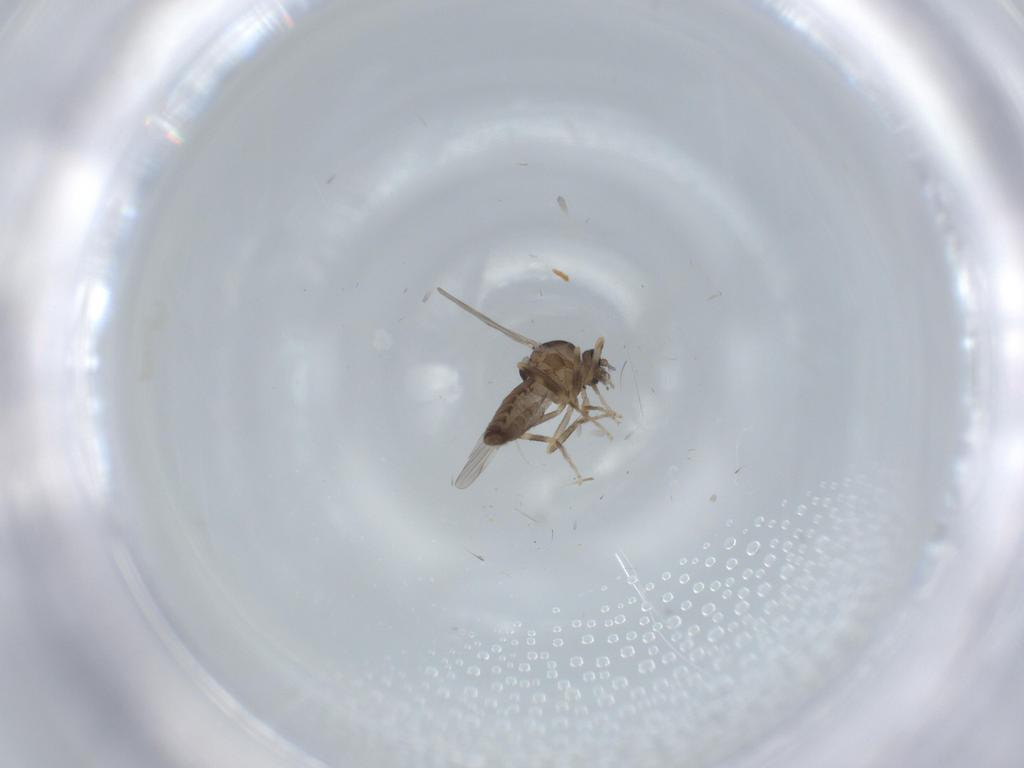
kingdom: Animalia
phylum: Arthropoda
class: Insecta
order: Diptera
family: Ceratopogonidae
